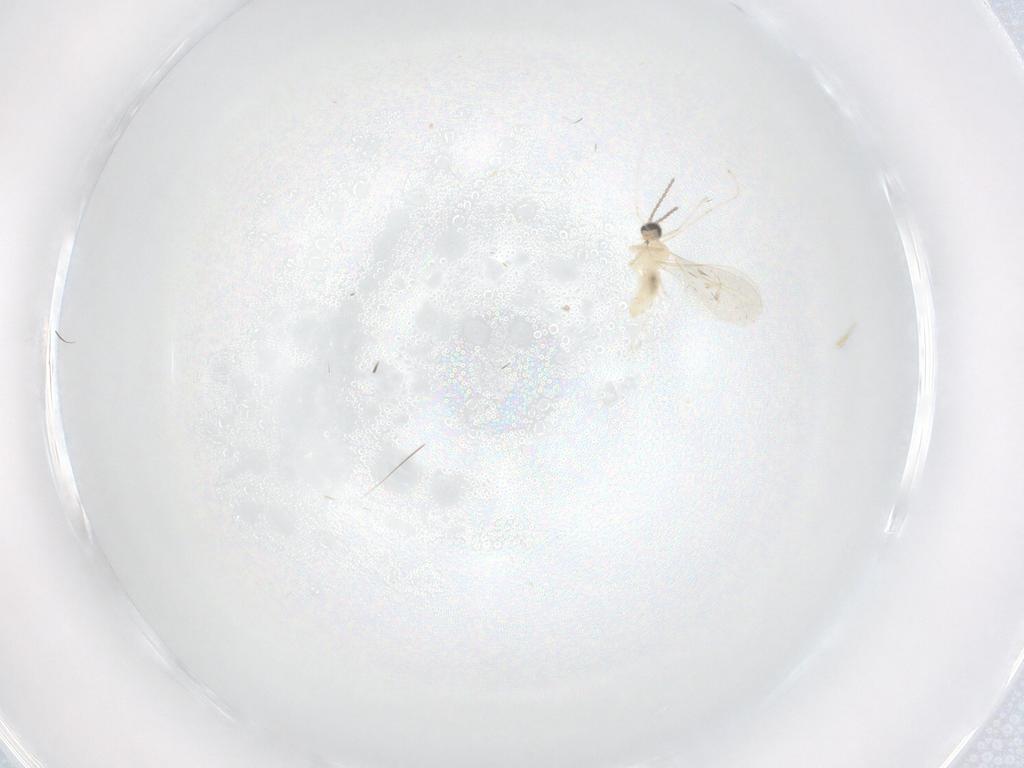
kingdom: Animalia
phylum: Arthropoda
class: Insecta
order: Diptera
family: Cecidomyiidae
